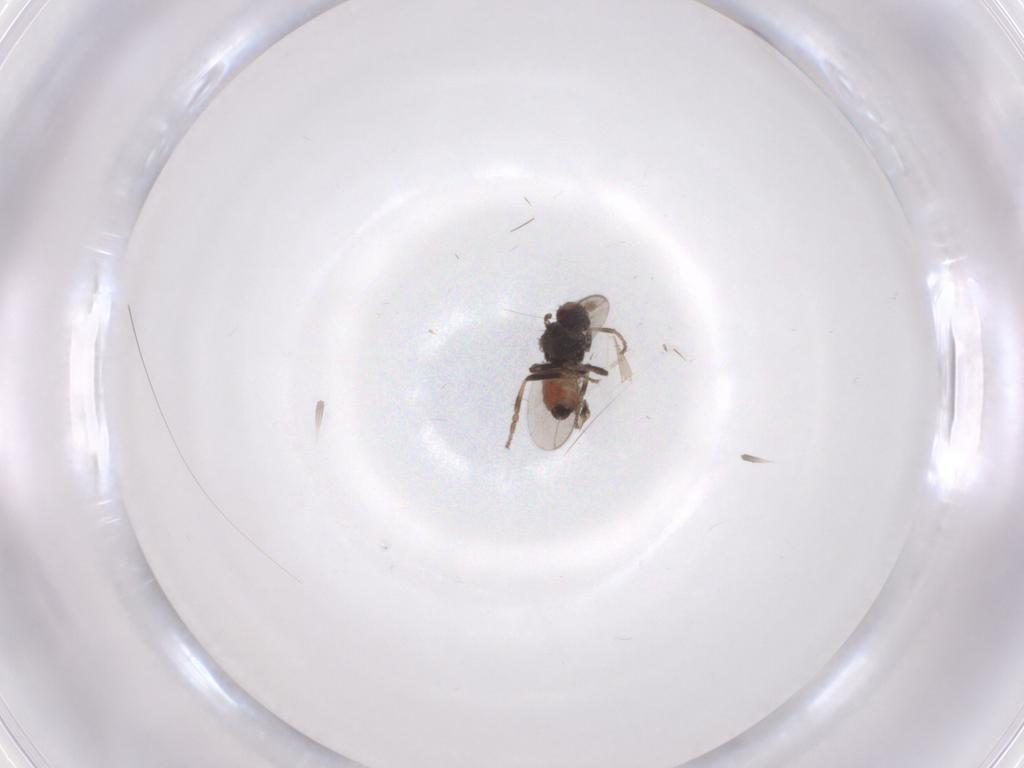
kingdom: Animalia
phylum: Arthropoda
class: Insecta
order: Diptera
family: Sphaeroceridae
